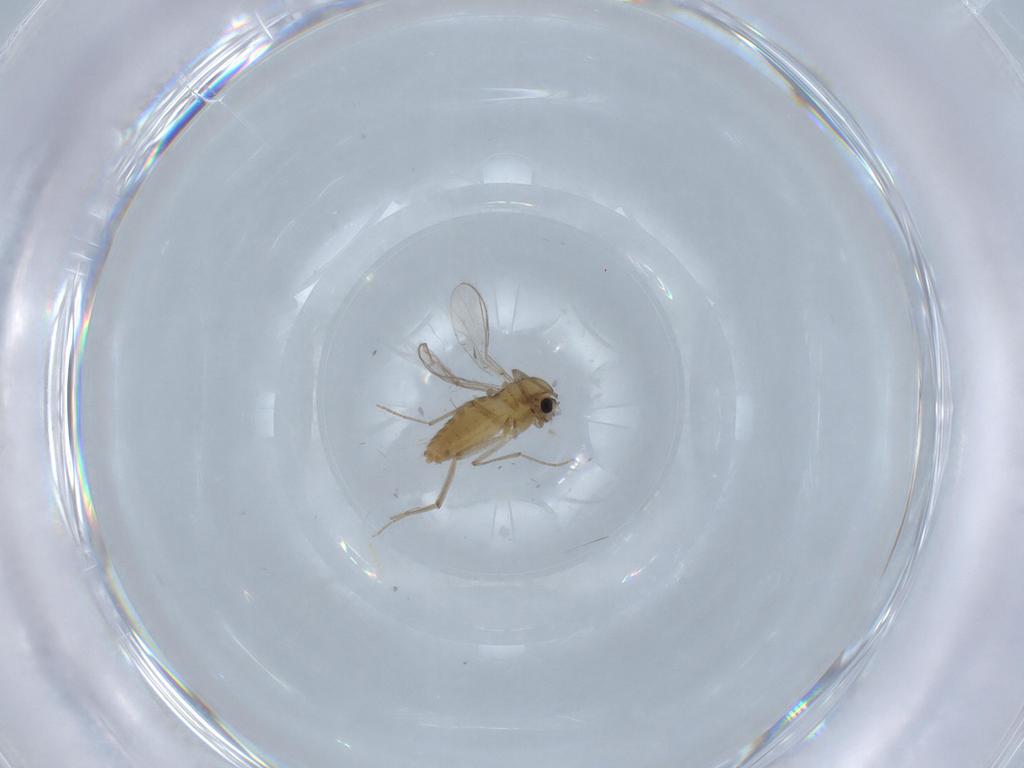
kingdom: Animalia
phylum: Arthropoda
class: Insecta
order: Diptera
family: Chironomidae
